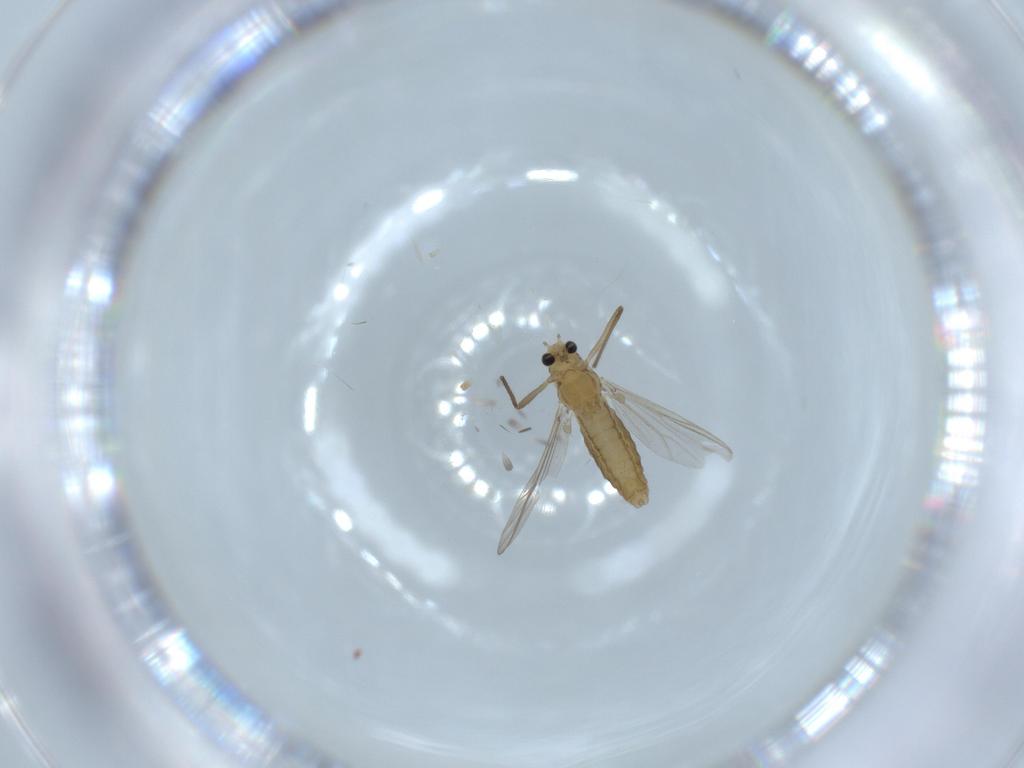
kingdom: Animalia
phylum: Arthropoda
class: Insecta
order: Diptera
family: Chironomidae
